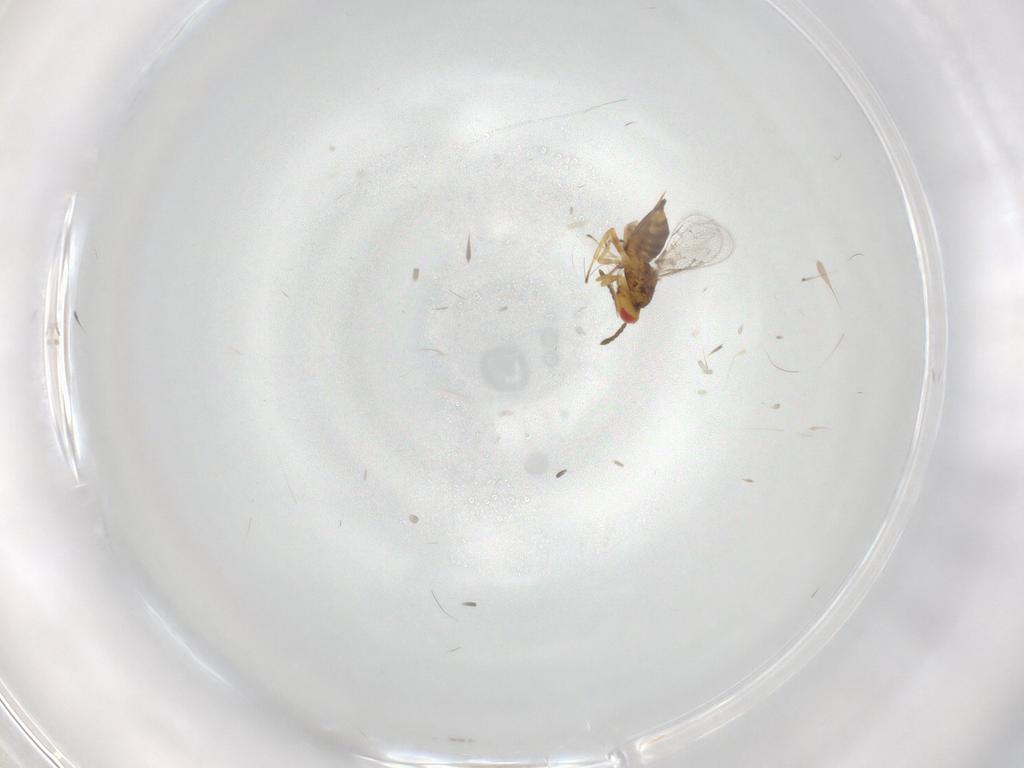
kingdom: Animalia
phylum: Arthropoda
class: Insecta
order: Hymenoptera
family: Eulophidae
